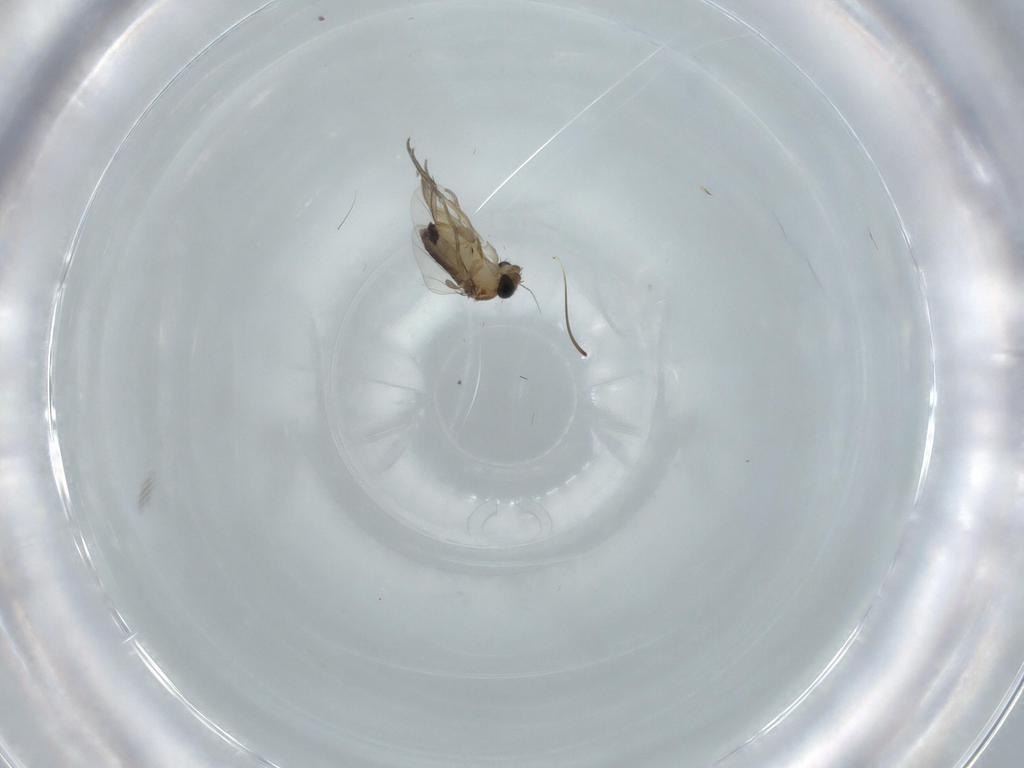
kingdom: Animalia
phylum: Arthropoda
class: Insecta
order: Diptera
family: Phoridae
